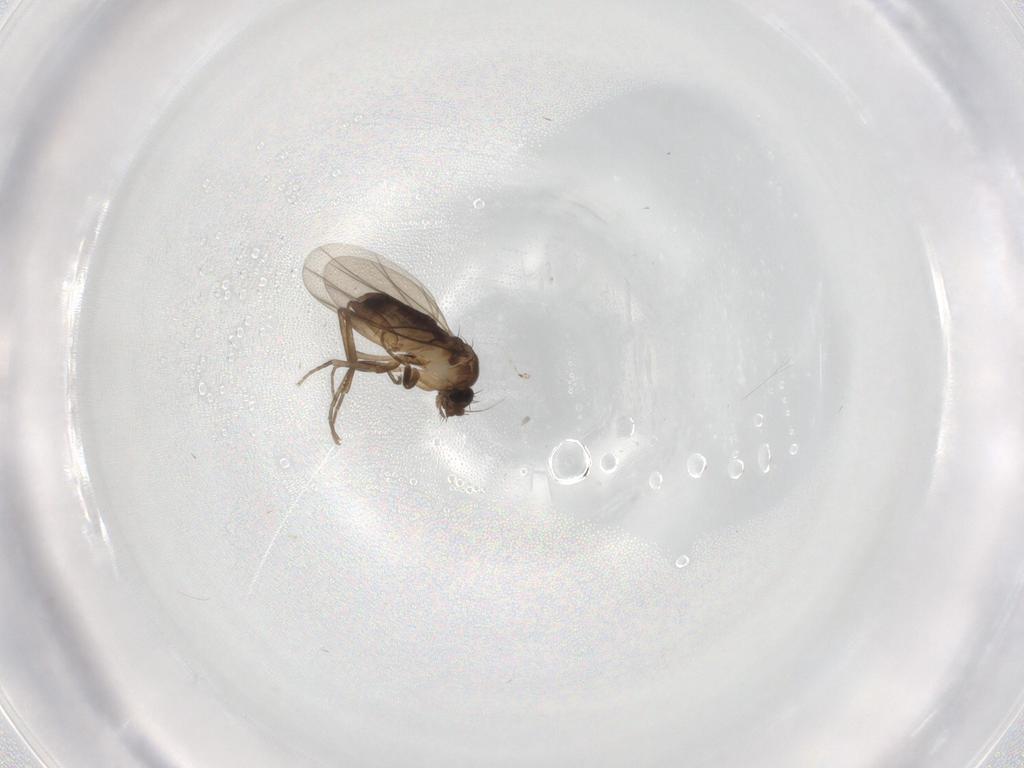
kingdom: Animalia
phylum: Arthropoda
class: Insecta
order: Diptera
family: Phoridae
